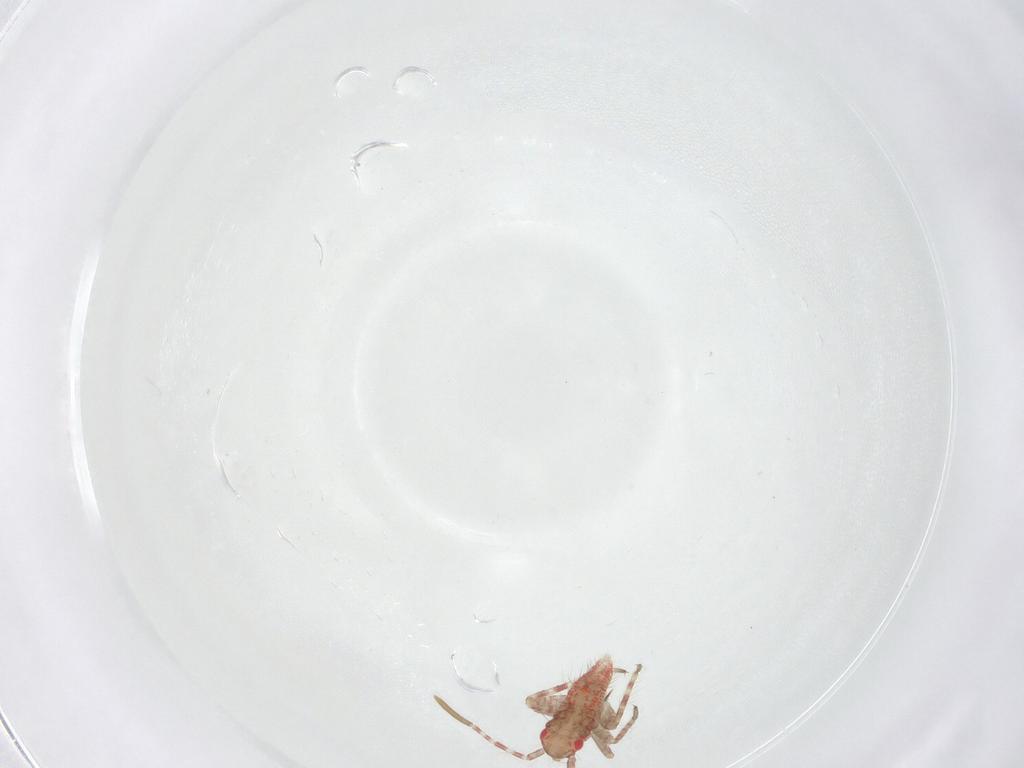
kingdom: Animalia
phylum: Arthropoda
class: Insecta
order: Hemiptera
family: Miridae
